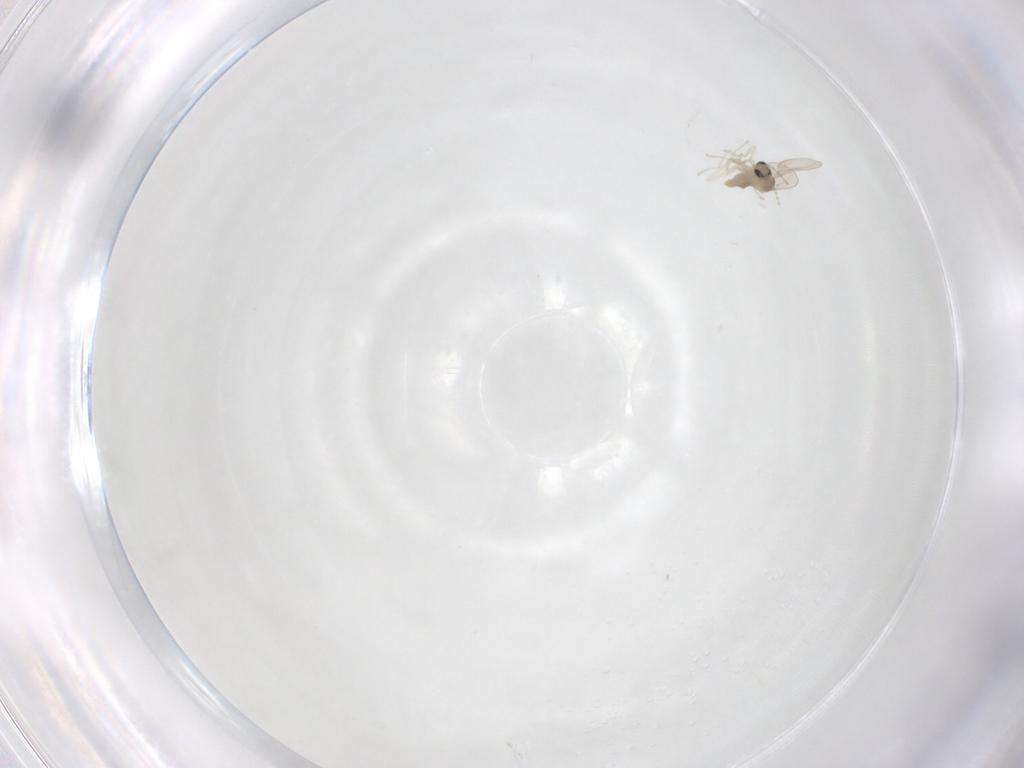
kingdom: Animalia
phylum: Arthropoda
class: Insecta
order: Diptera
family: Cecidomyiidae
